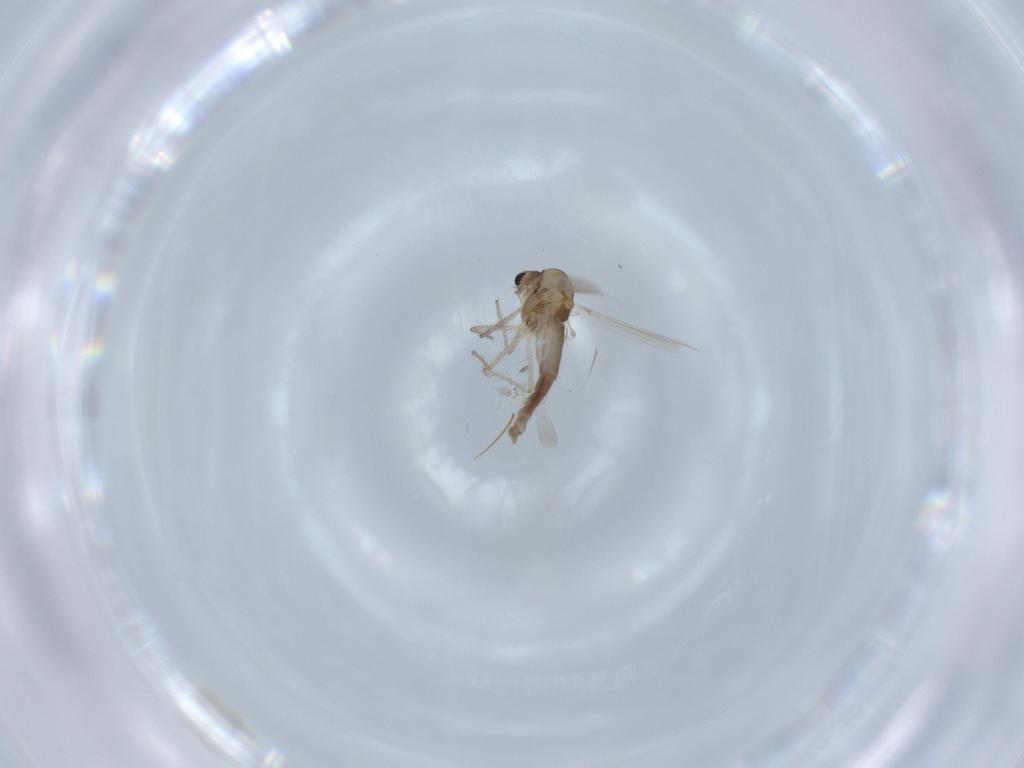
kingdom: Animalia
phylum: Arthropoda
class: Insecta
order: Diptera
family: Chironomidae
